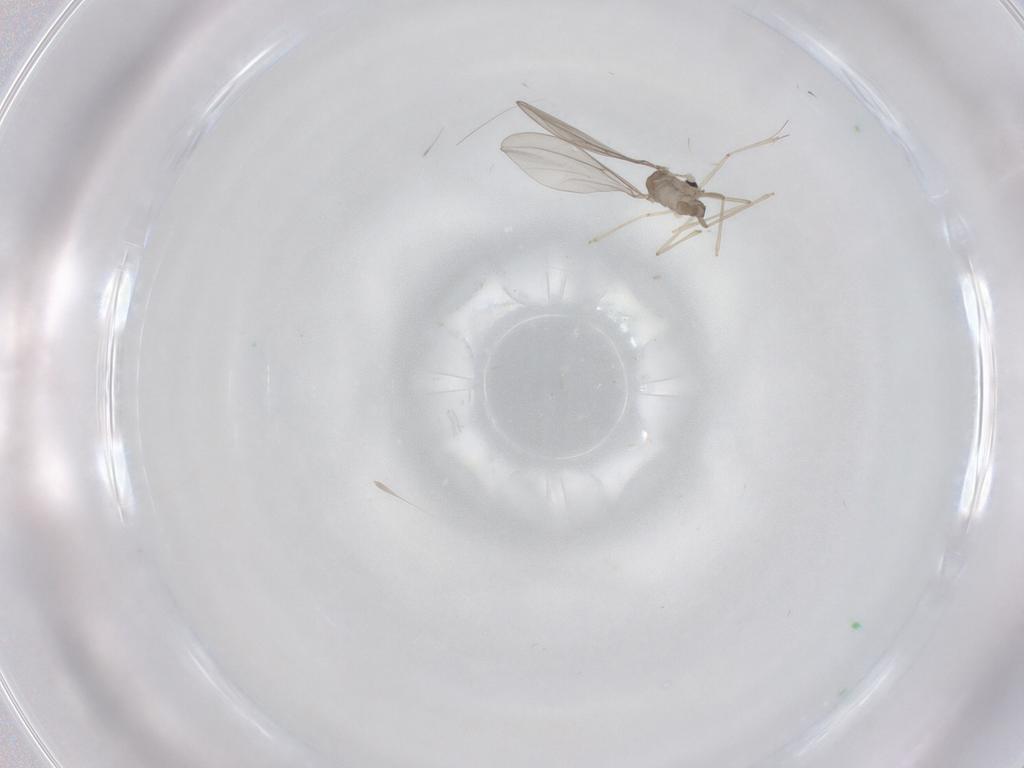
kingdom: Animalia
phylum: Arthropoda
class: Insecta
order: Diptera
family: Cecidomyiidae
